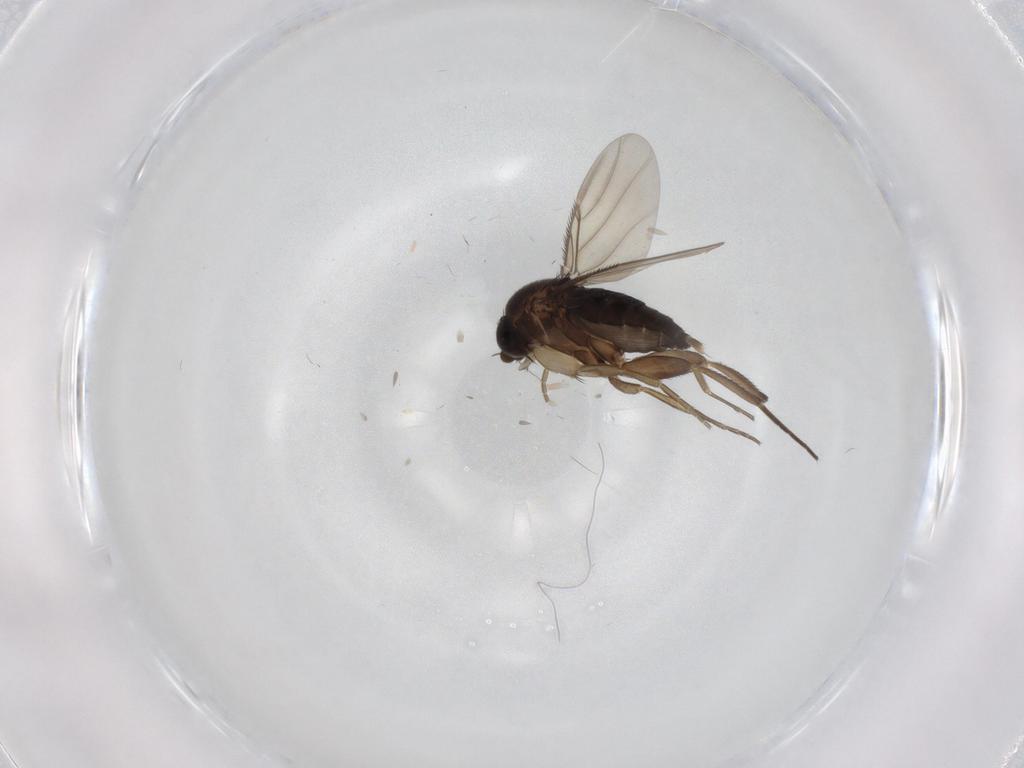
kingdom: Animalia
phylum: Arthropoda
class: Insecta
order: Diptera
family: Phoridae
